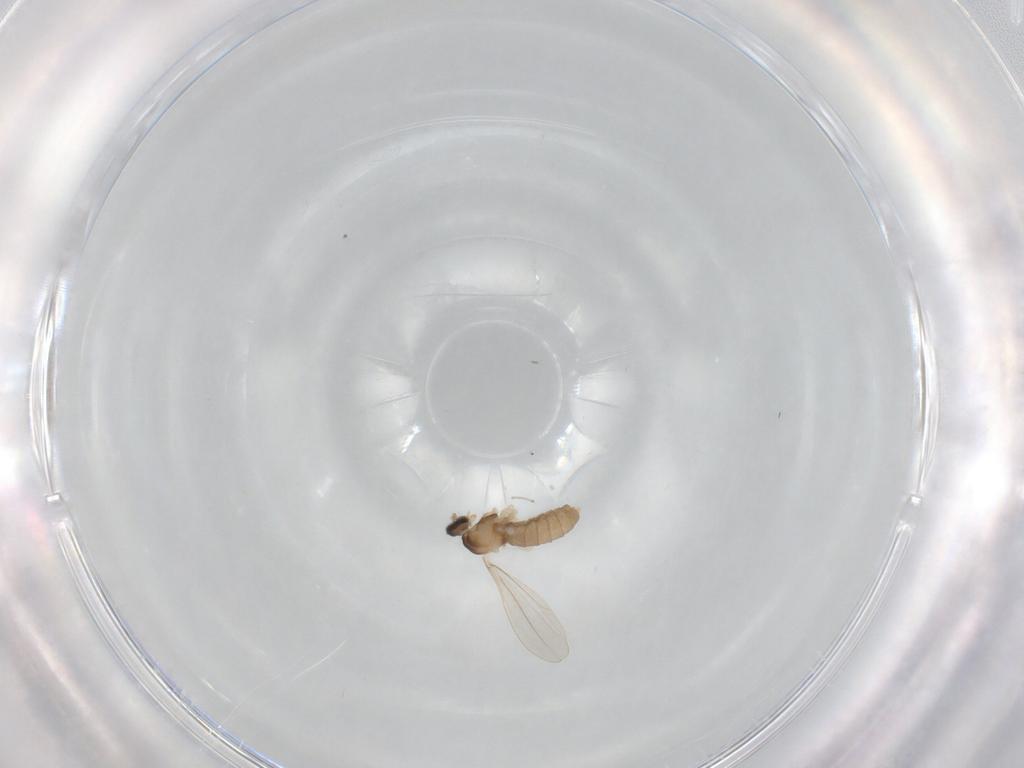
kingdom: Animalia
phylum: Arthropoda
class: Insecta
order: Diptera
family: Cecidomyiidae
